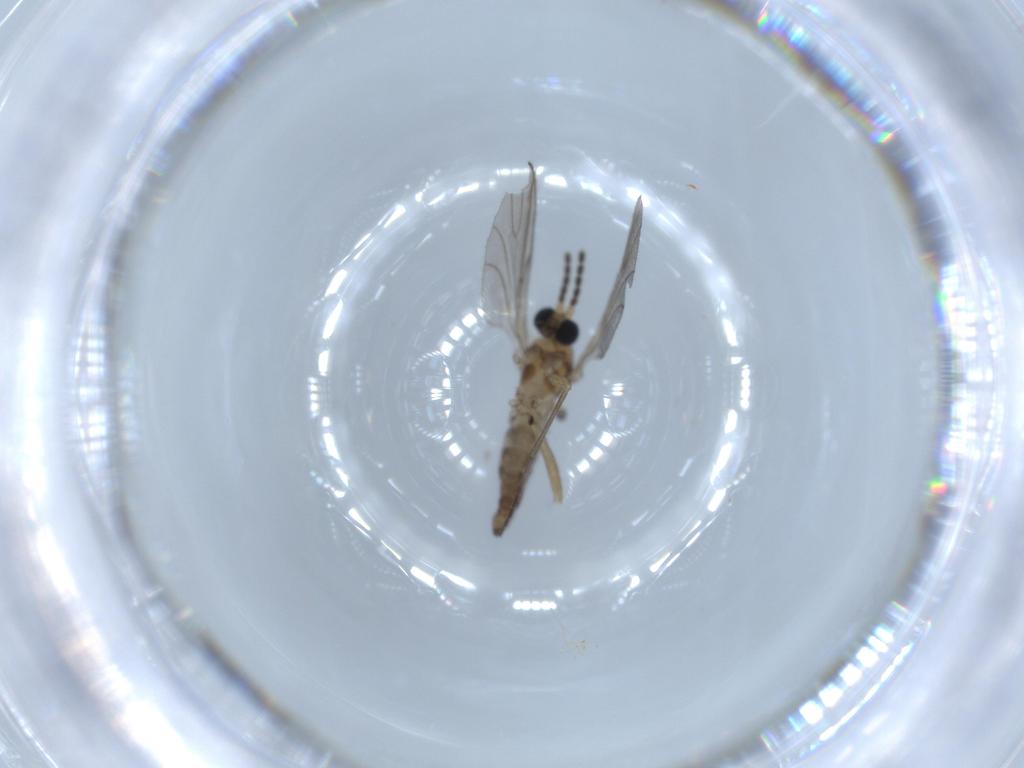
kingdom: Animalia
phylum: Arthropoda
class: Insecta
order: Diptera
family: Sciaridae
